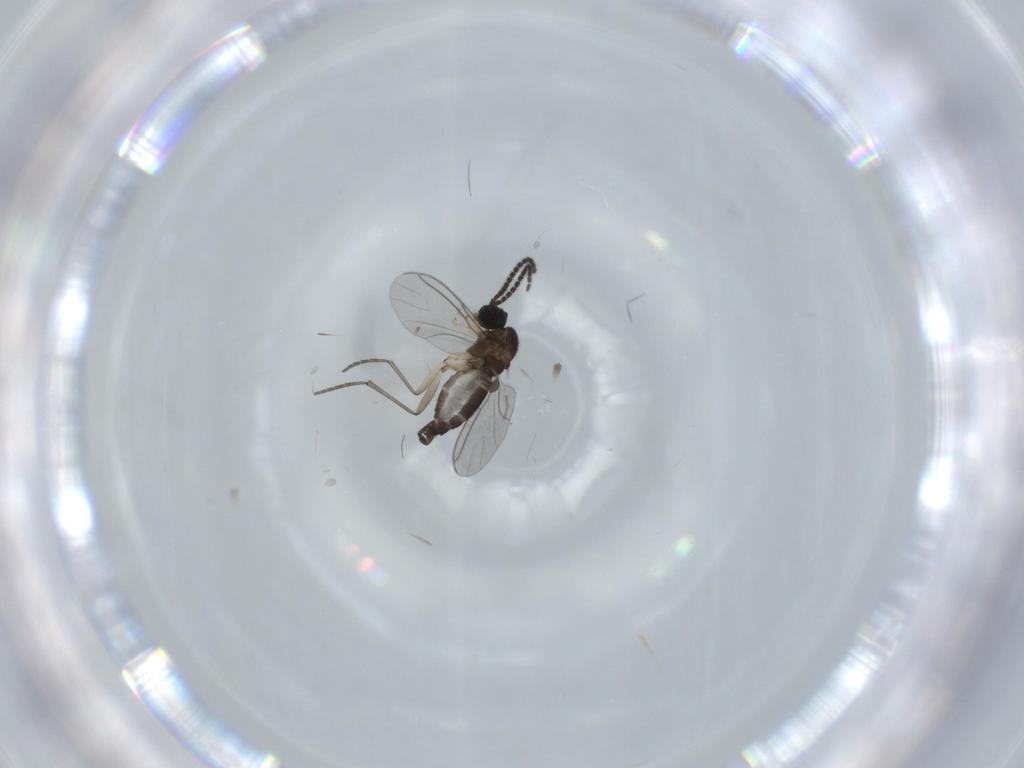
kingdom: Animalia
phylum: Arthropoda
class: Insecta
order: Diptera
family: Sciaridae
